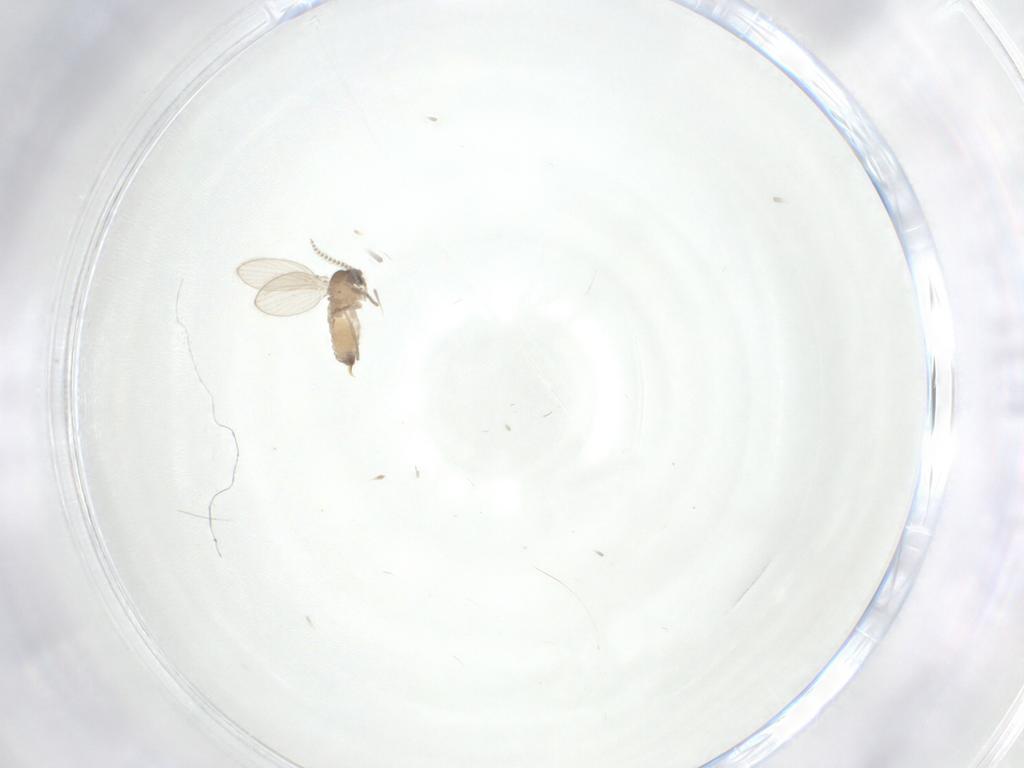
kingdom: Animalia
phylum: Arthropoda
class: Insecta
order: Diptera
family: Psychodidae
